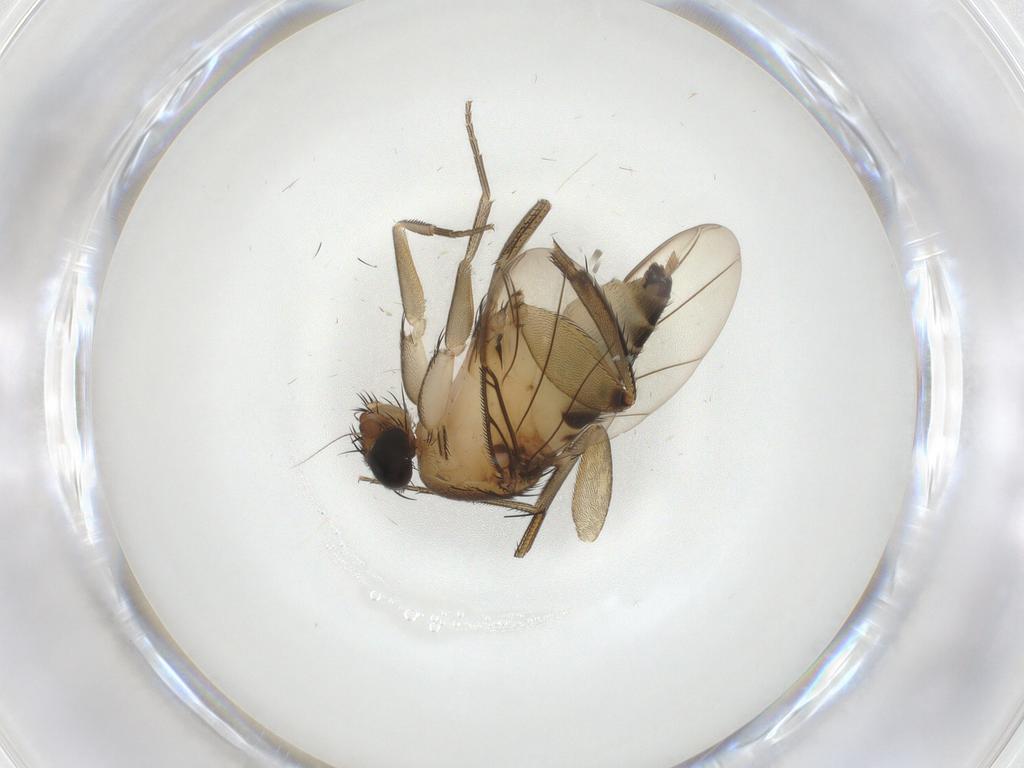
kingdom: Animalia
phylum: Arthropoda
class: Insecta
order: Diptera
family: Phoridae
